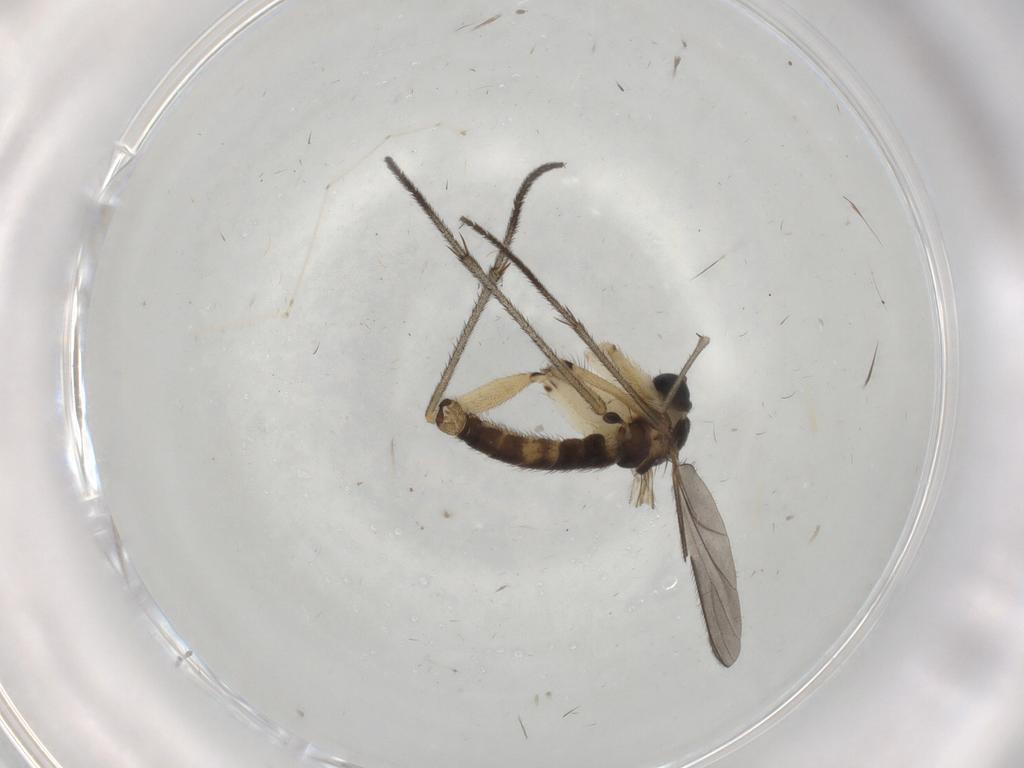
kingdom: Animalia
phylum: Arthropoda
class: Insecta
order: Diptera
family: Sciaridae
